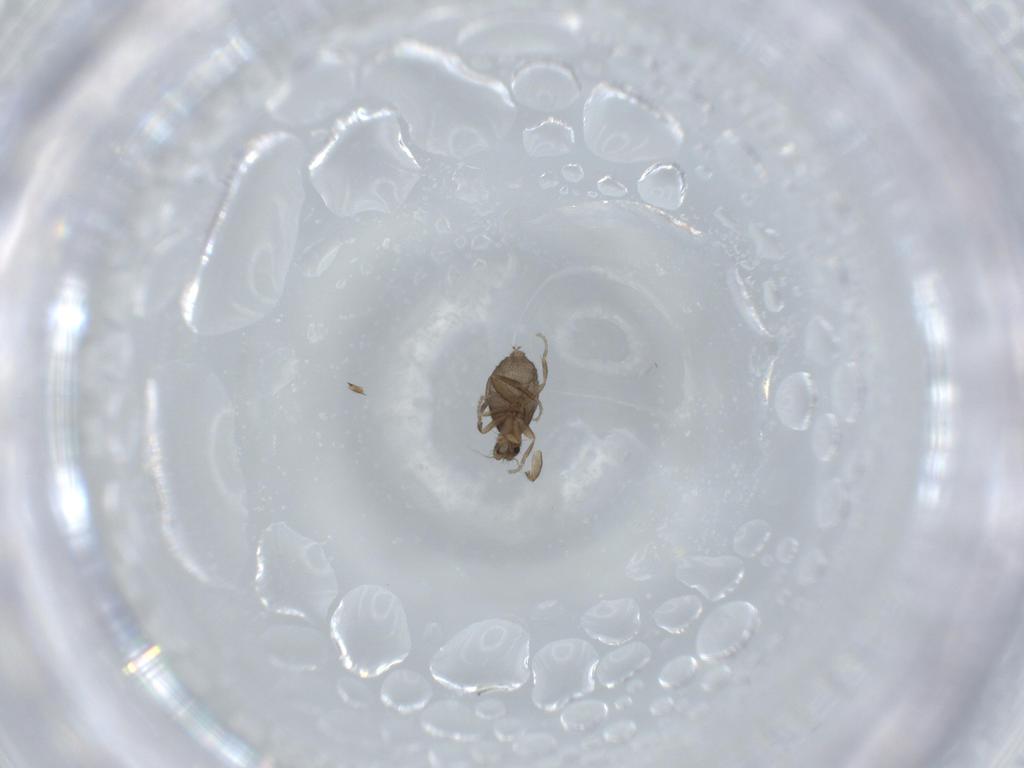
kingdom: Animalia
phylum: Arthropoda
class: Insecta
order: Diptera
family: Phoridae
